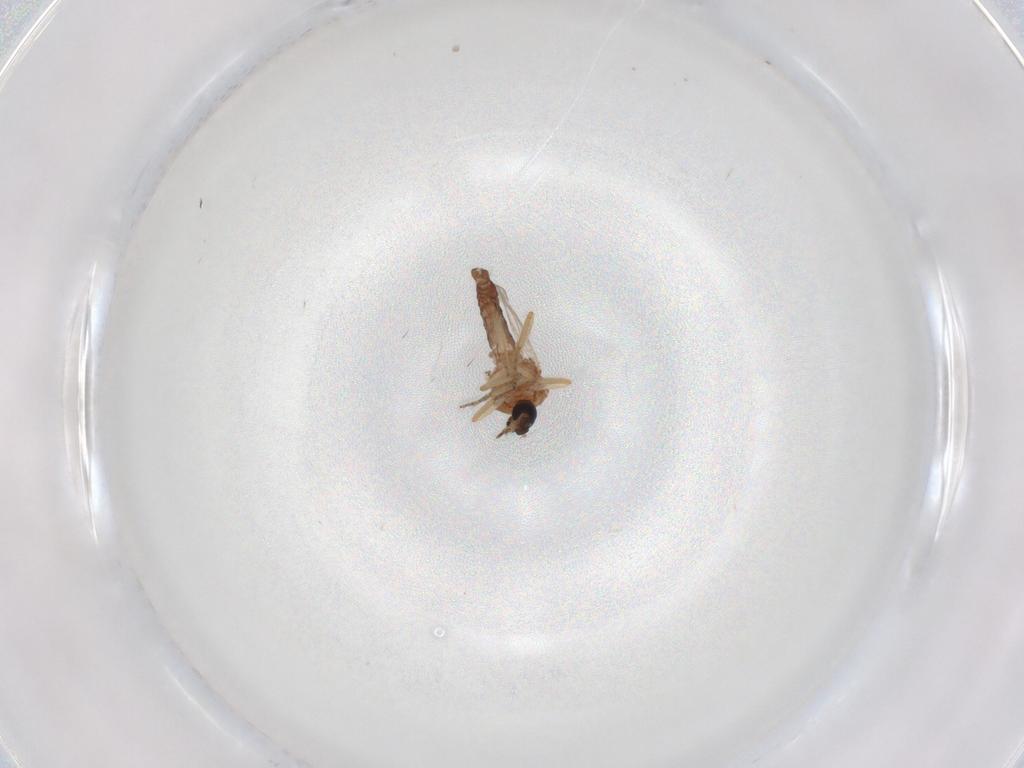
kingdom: Animalia
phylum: Arthropoda
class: Insecta
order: Diptera
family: Ceratopogonidae
